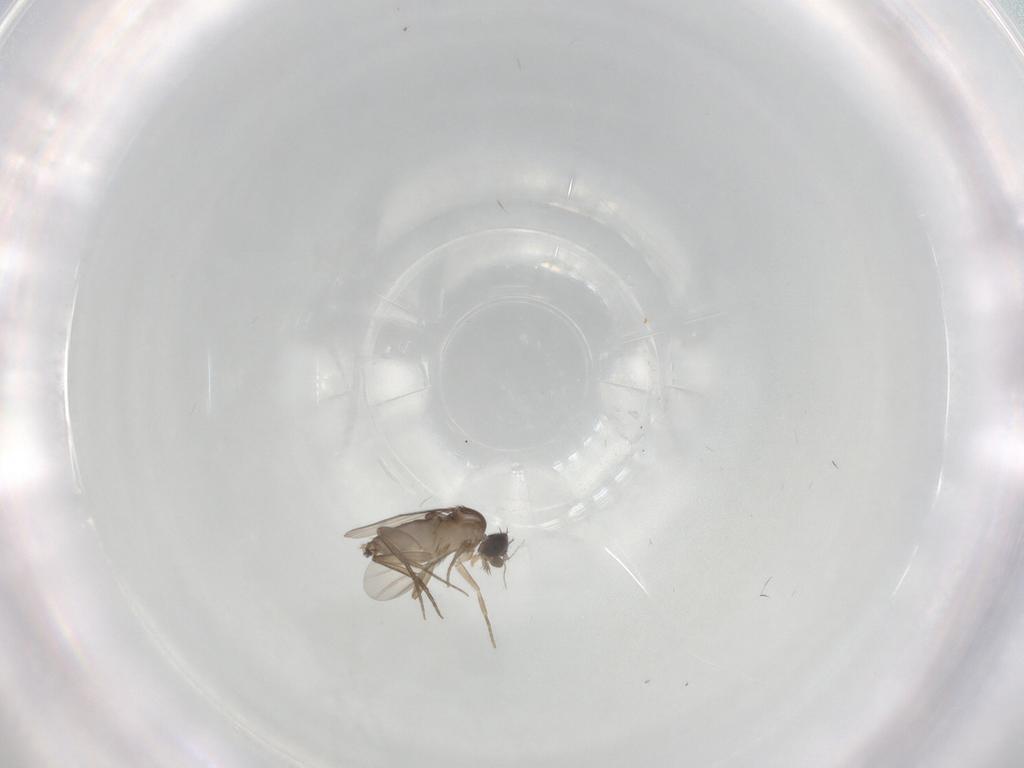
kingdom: Animalia
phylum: Arthropoda
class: Insecta
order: Diptera
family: Phoridae
